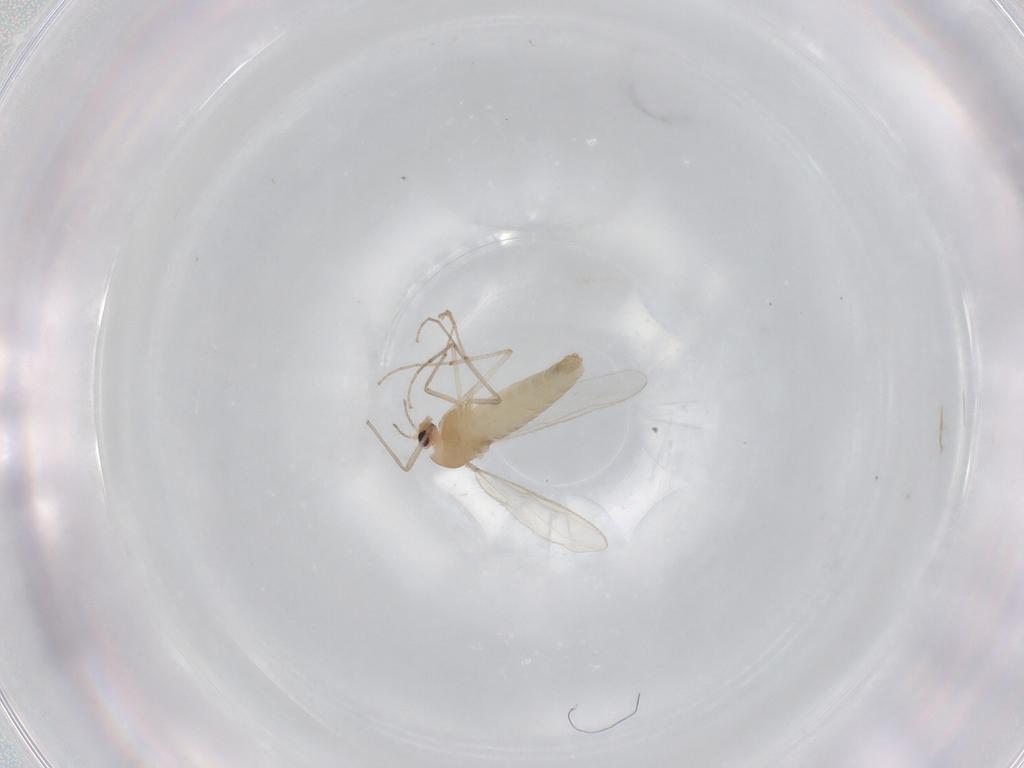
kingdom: Animalia
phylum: Arthropoda
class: Insecta
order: Diptera
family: Chironomidae
